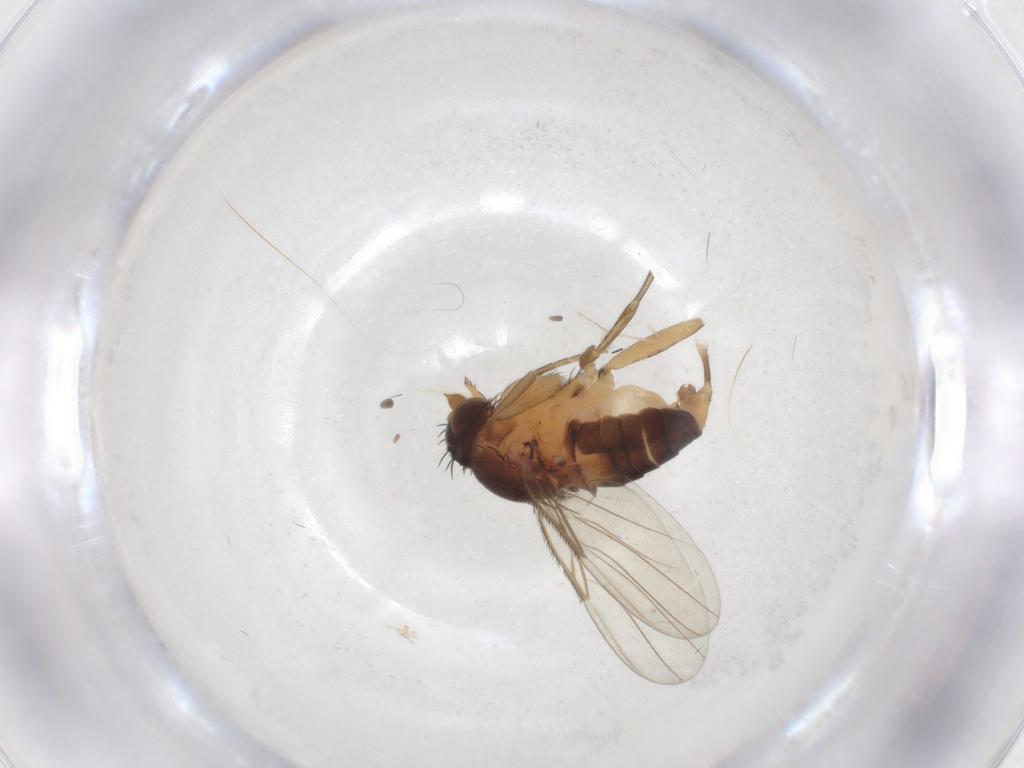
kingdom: Animalia
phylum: Arthropoda
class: Insecta
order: Diptera
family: Phoridae
